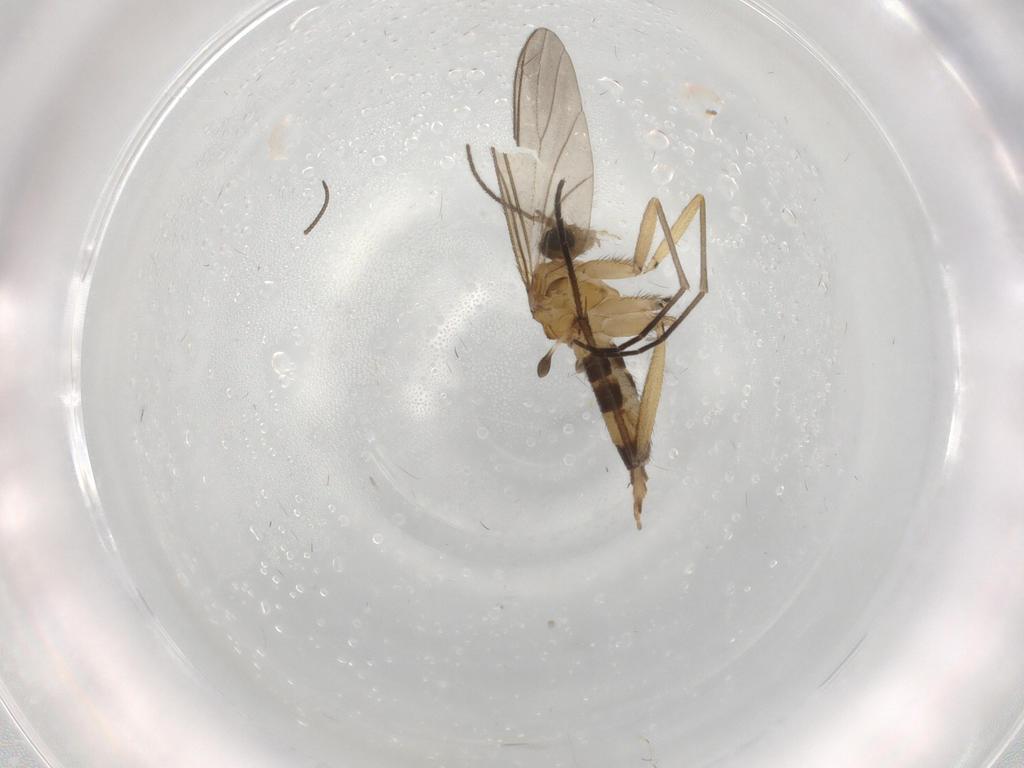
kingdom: Animalia
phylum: Arthropoda
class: Insecta
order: Diptera
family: Sciaridae
